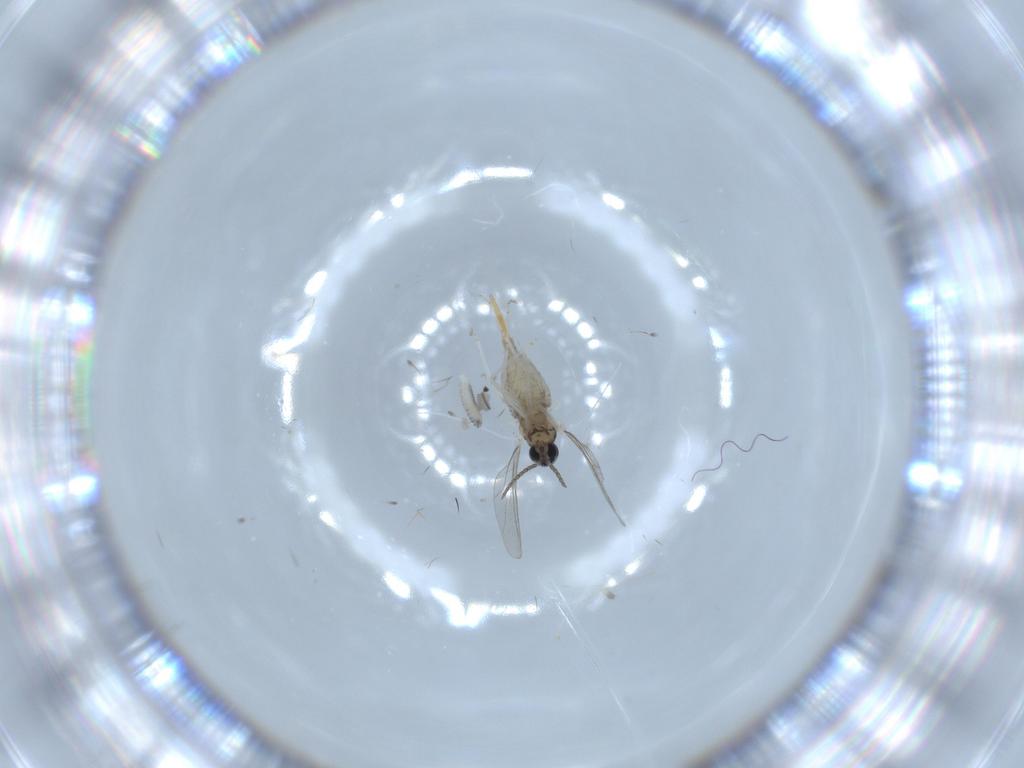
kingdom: Animalia
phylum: Arthropoda
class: Insecta
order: Diptera
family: Cecidomyiidae
